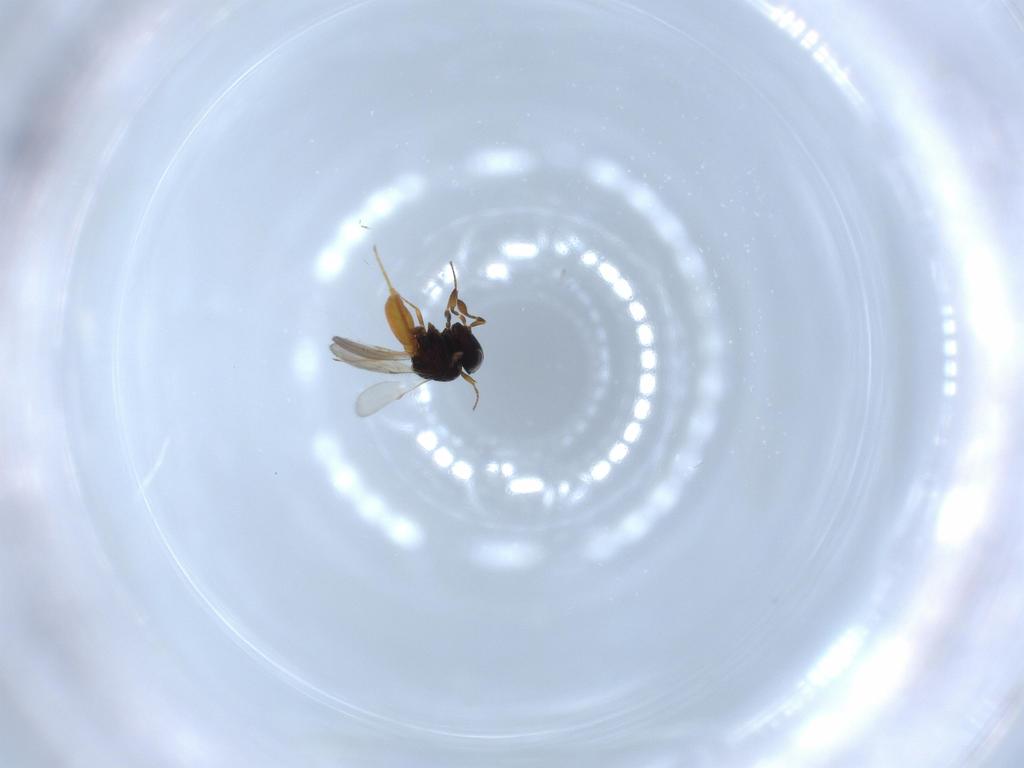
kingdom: Animalia
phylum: Arthropoda
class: Insecta
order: Hymenoptera
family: Scelionidae
